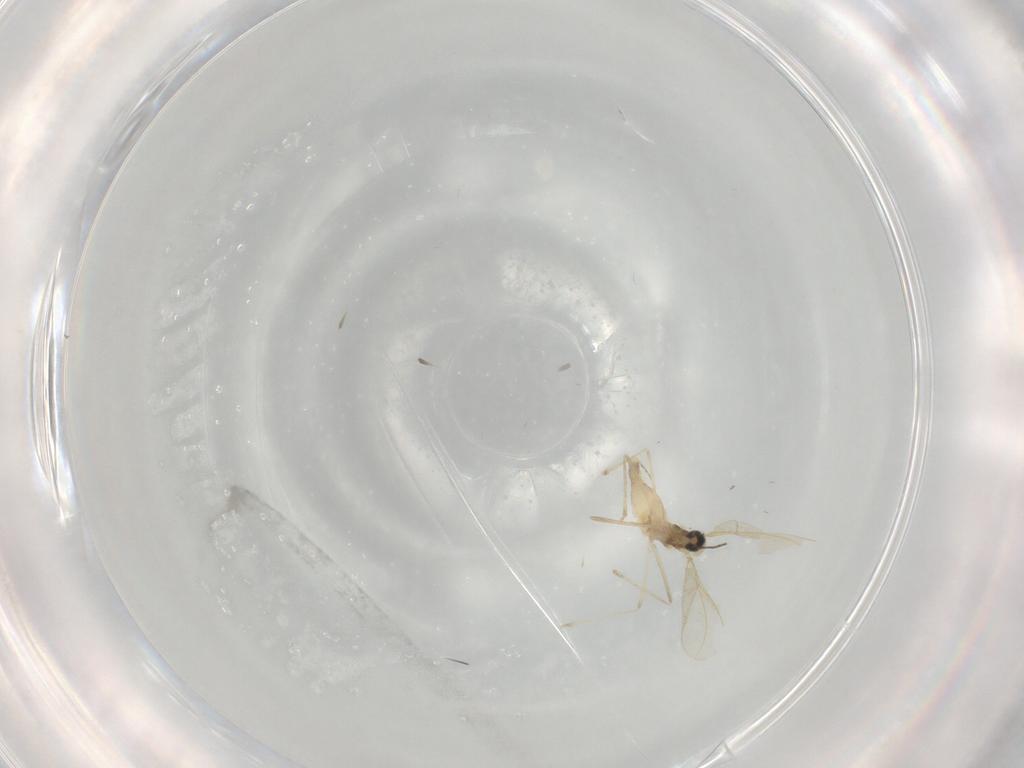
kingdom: Animalia
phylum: Arthropoda
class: Insecta
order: Diptera
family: Cecidomyiidae
